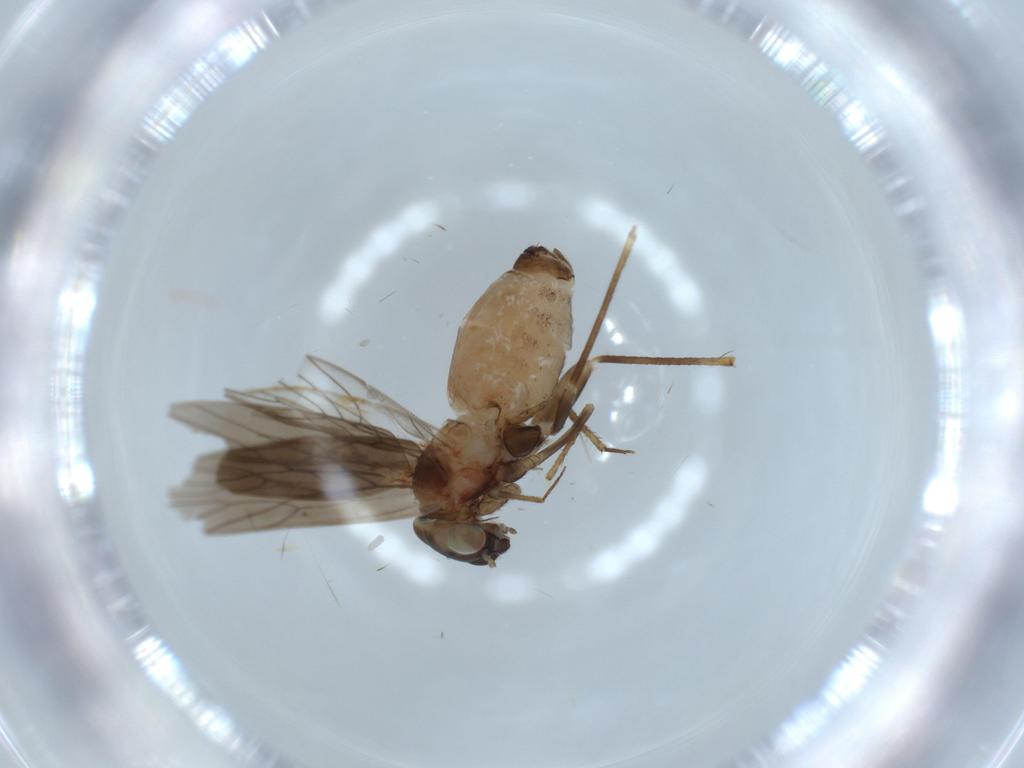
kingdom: Animalia
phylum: Arthropoda
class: Insecta
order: Psocodea
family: Lepidopsocidae
